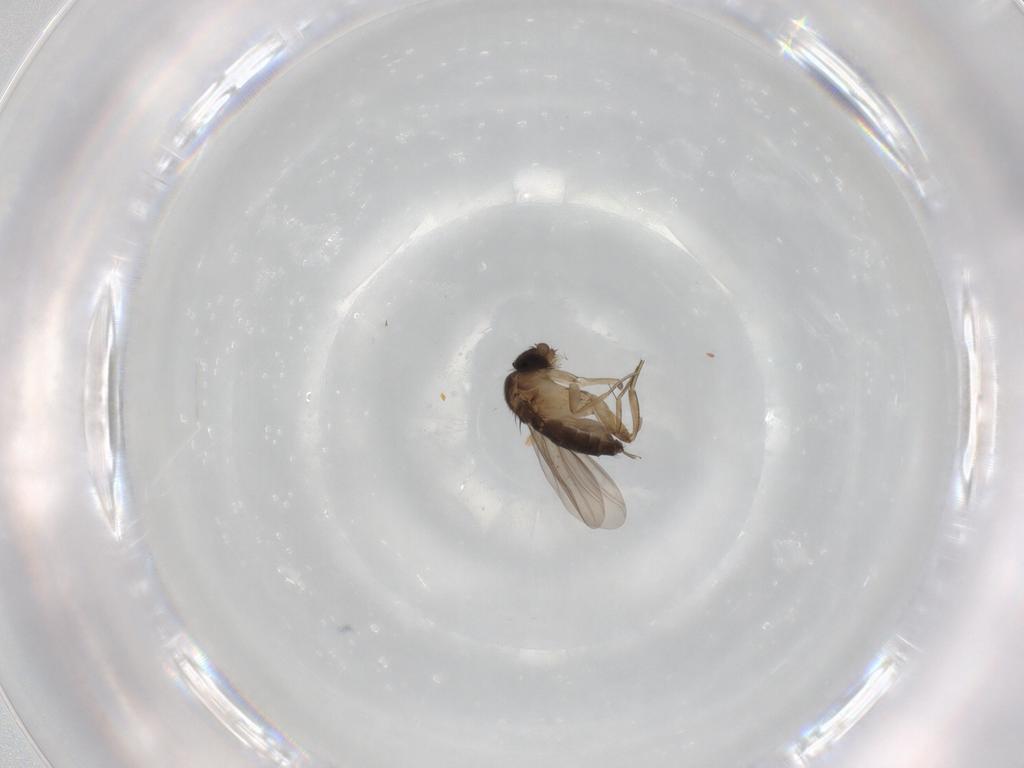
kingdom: Animalia
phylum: Arthropoda
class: Insecta
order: Diptera
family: Phoridae
